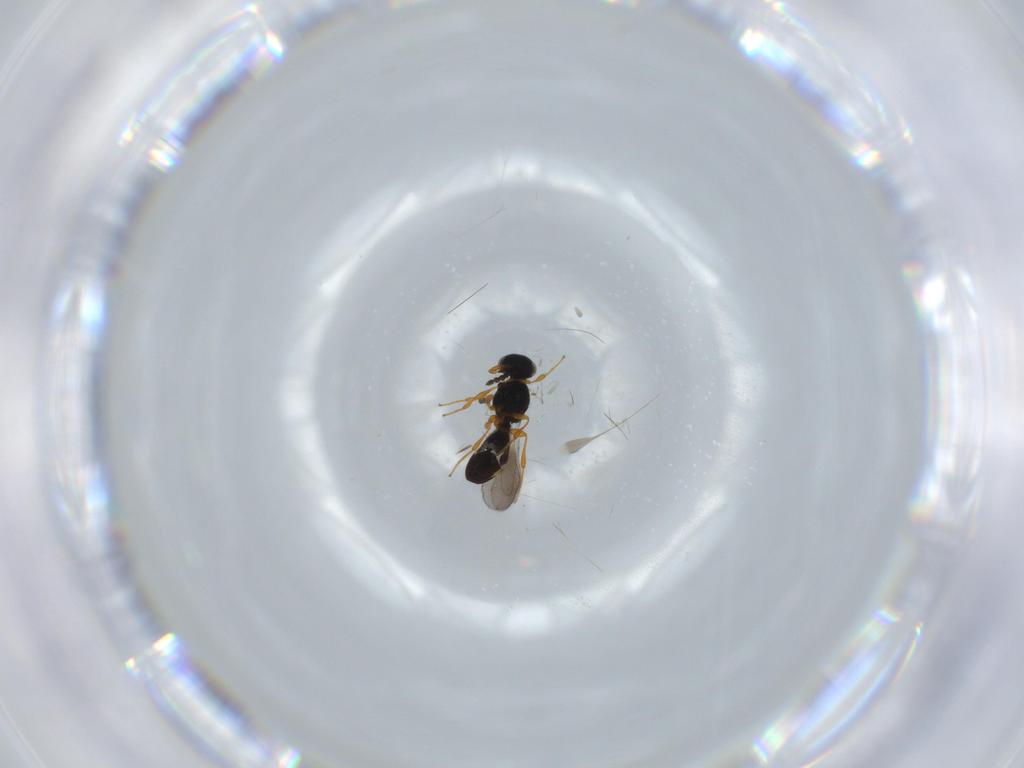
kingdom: Animalia
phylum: Arthropoda
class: Insecta
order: Hymenoptera
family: Platygastridae
